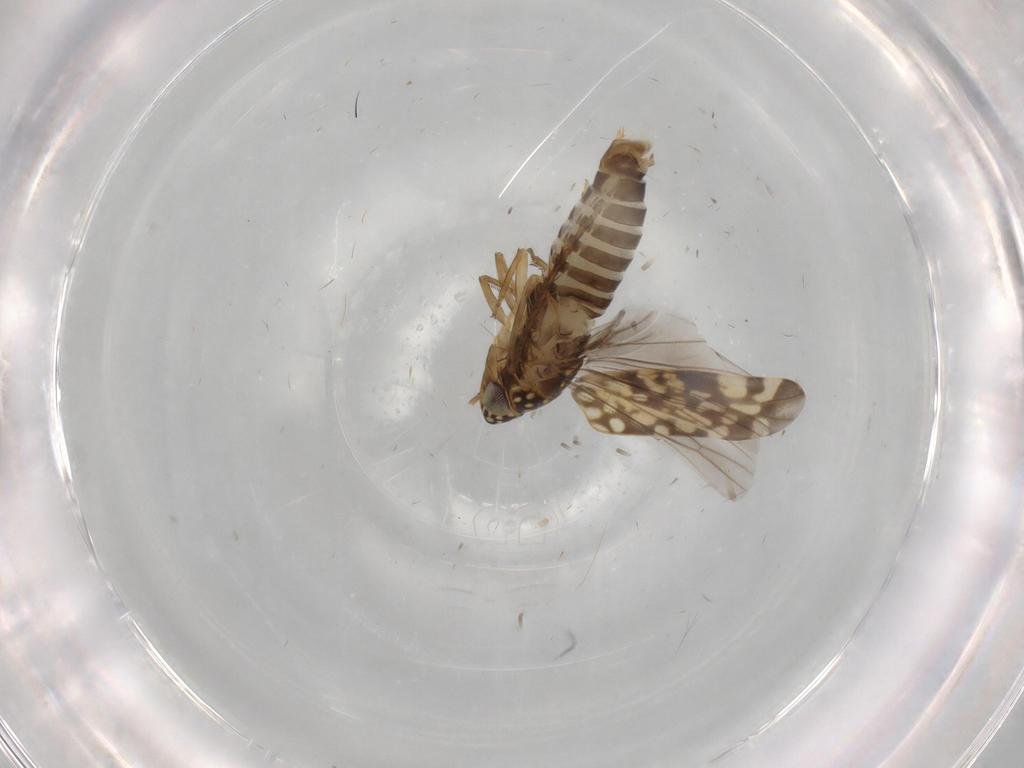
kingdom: Animalia
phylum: Arthropoda
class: Insecta
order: Hemiptera
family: Cicadellidae
